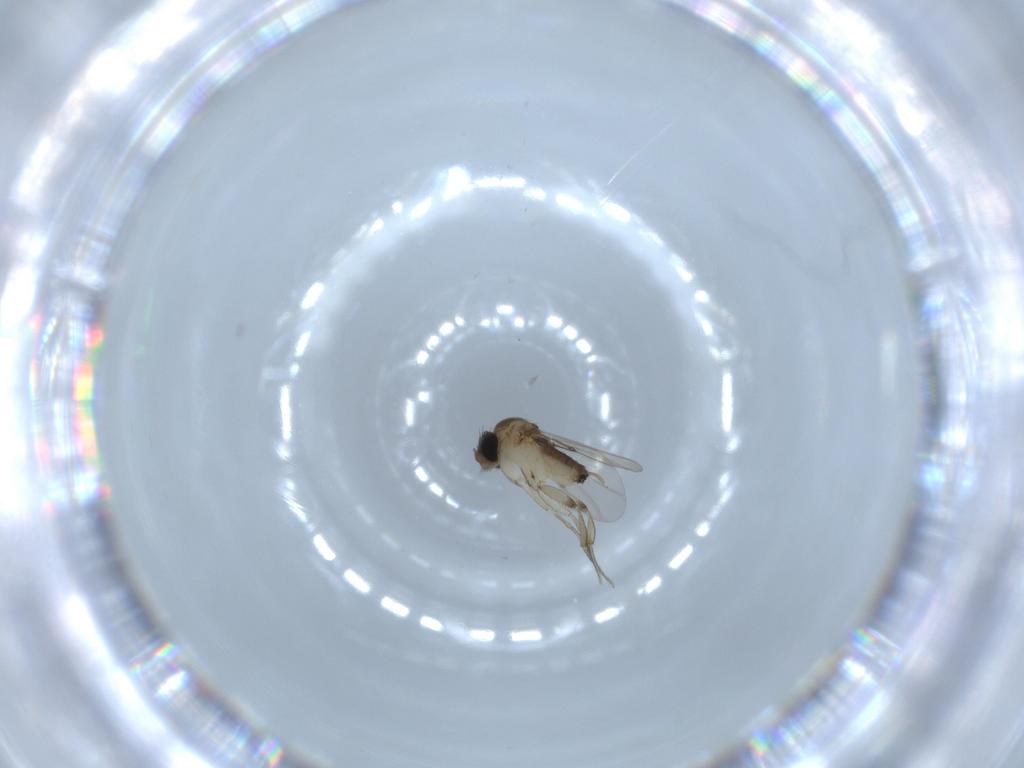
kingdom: Animalia
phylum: Arthropoda
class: Insecta
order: Diptera
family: Phoridae
